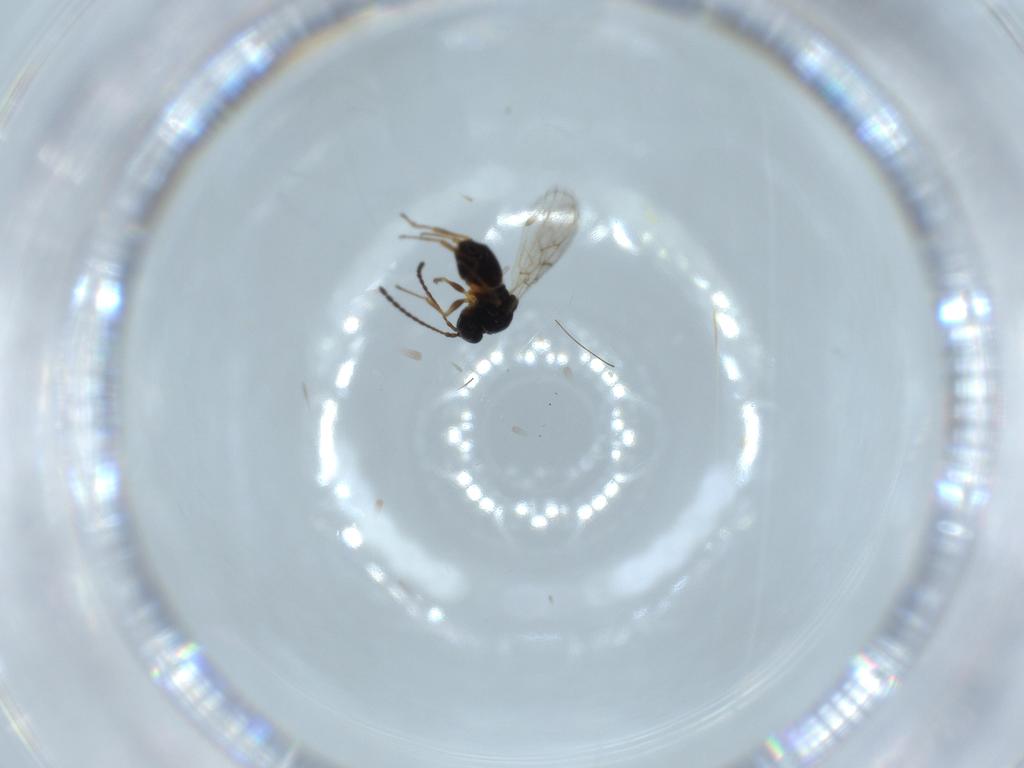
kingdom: Animalia
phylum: Arthropoda
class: Insecta
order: Hymenoptera
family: Figitidae
